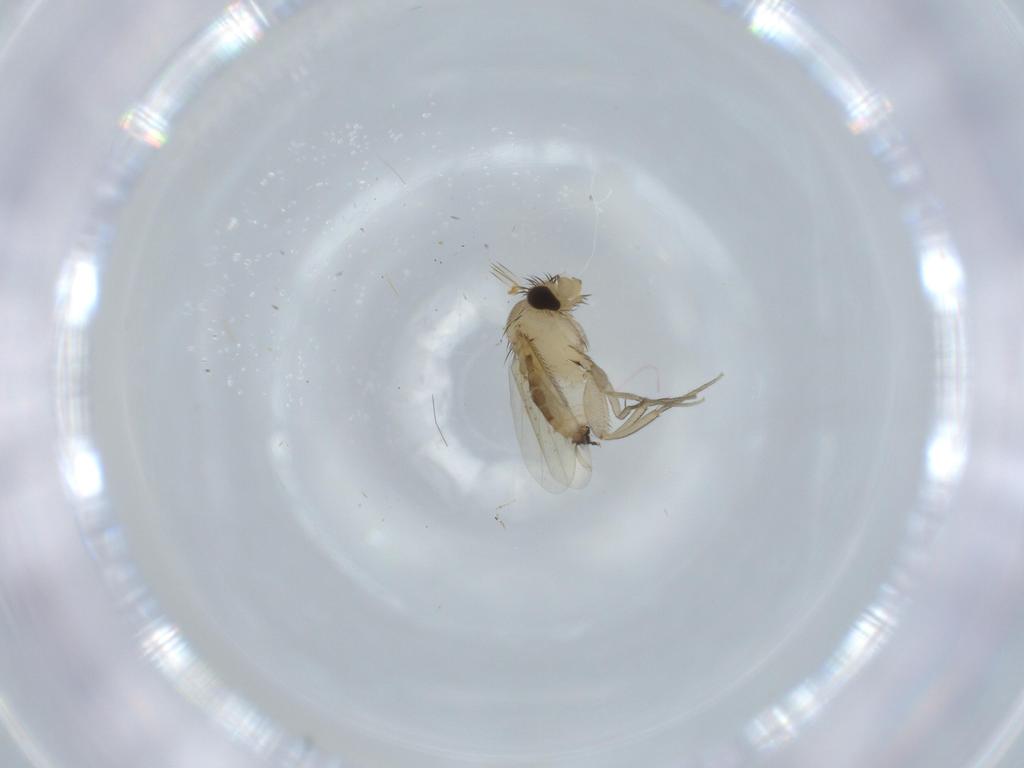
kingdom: Animalia
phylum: Arthropoda
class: Insecta
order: Diptera
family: Phoridae
